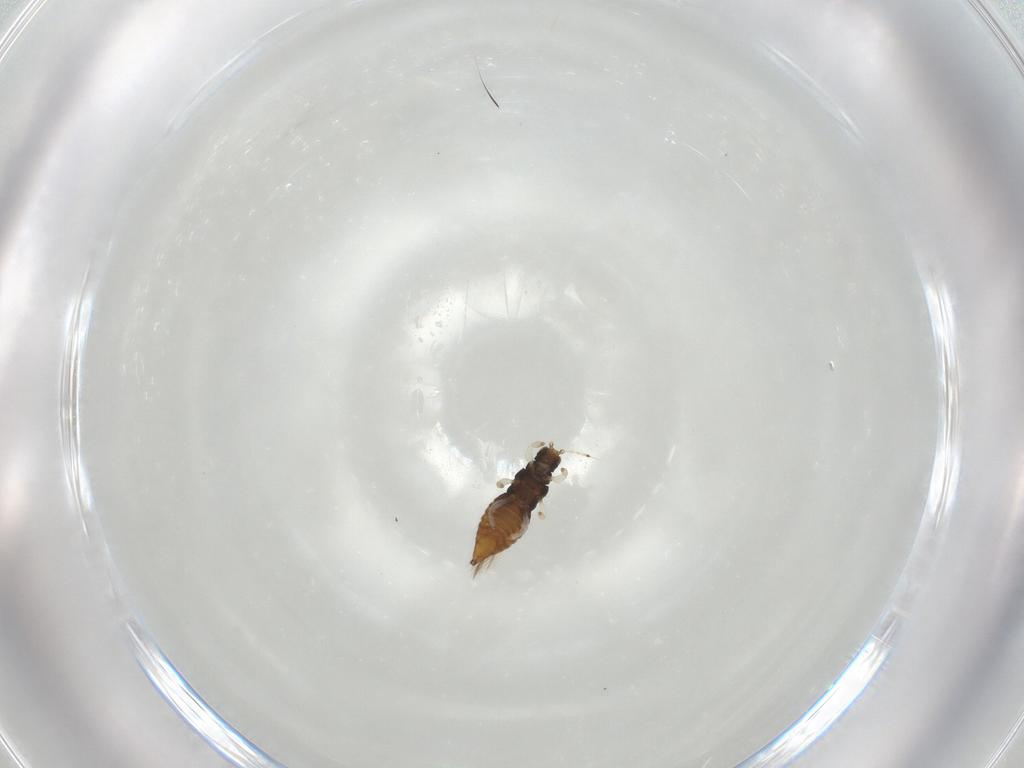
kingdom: Animalia
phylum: Arthropoda
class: Insecta
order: Thysanoptera
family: Thripidae
